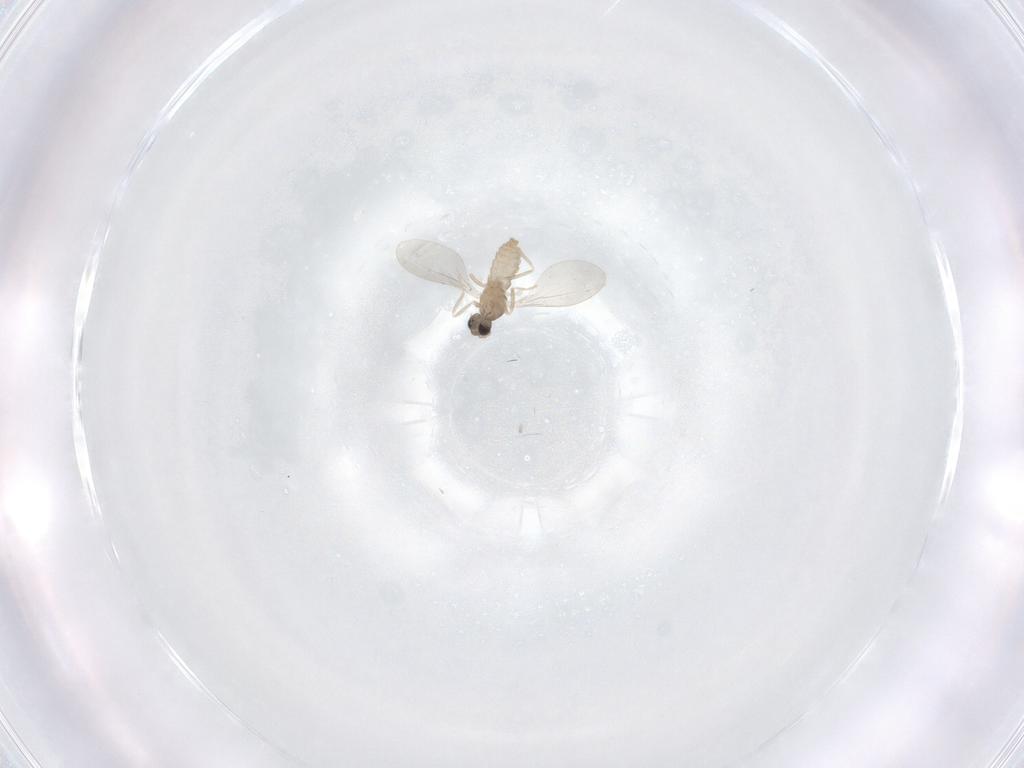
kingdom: Animalia
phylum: Arthropoda
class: Insecta
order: Diptera
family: Cecidomyiidae
